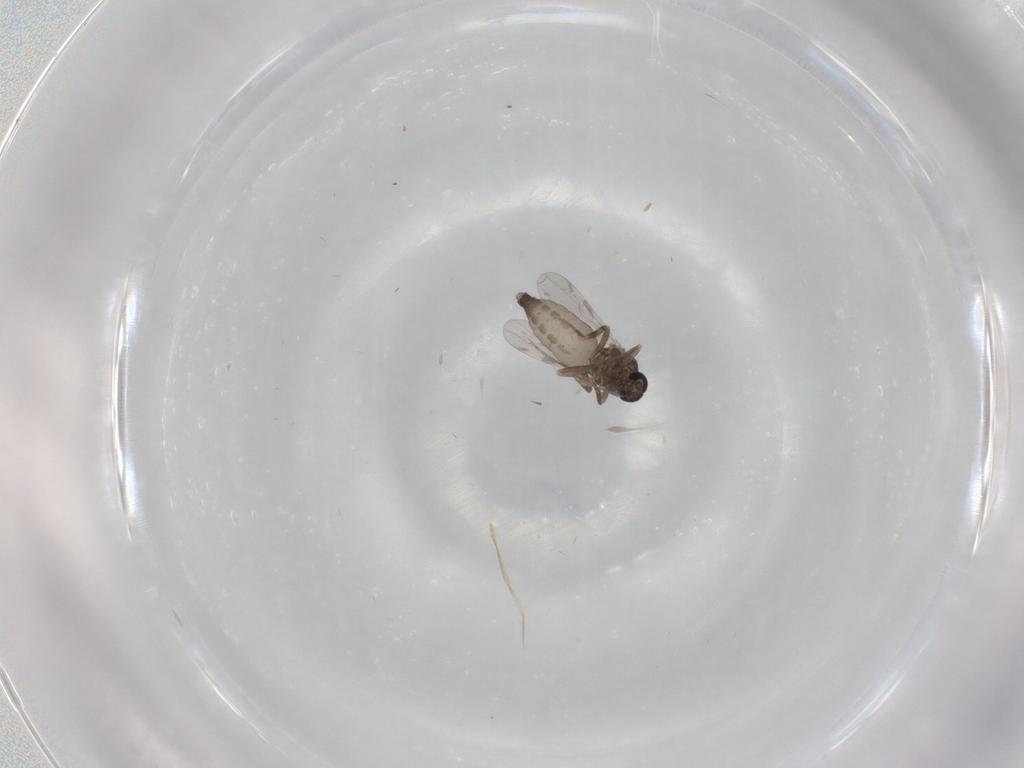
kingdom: Animalia
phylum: Arthropoda
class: Insecta
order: Diptera
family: Ceratopogonidae
